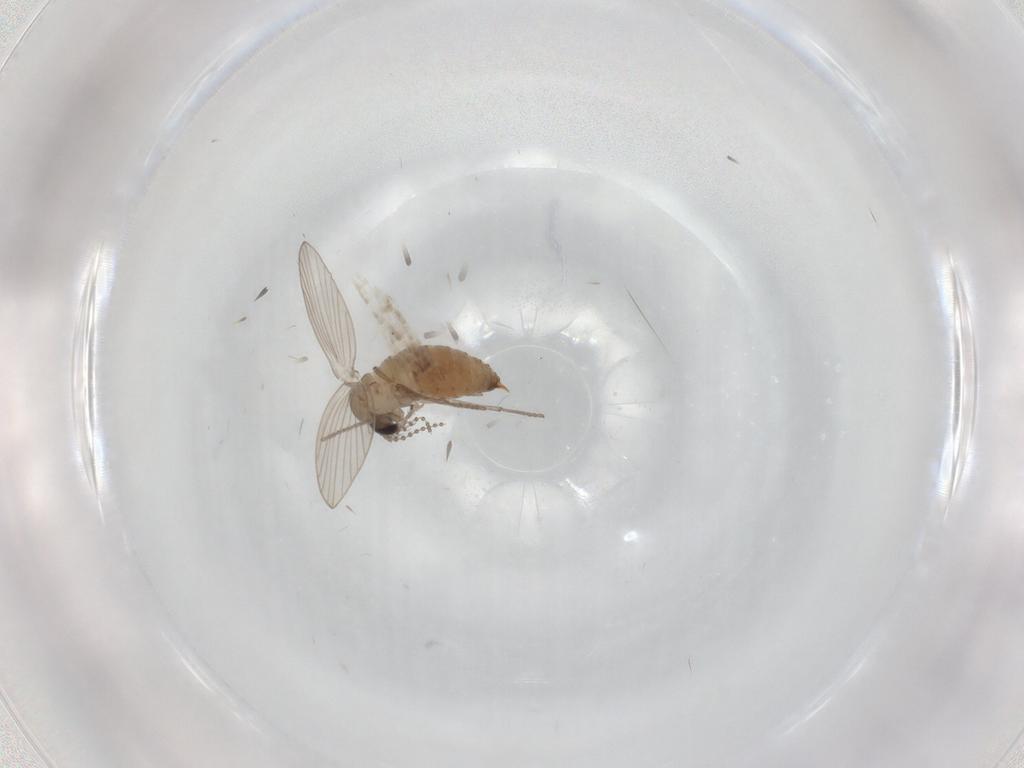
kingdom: Animalia
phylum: Arthropoda
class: Insecta
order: Diptera
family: Psychodidae
